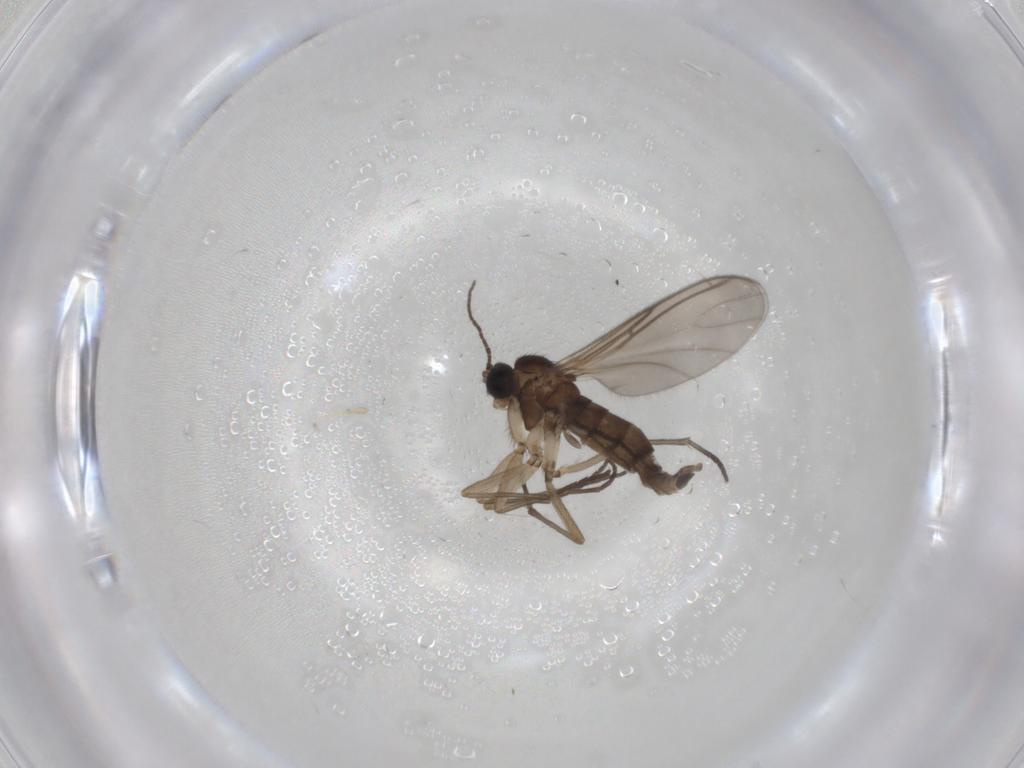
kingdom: Animalia
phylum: Arthropoda
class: Insecta
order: Diptera
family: Sciaridae
